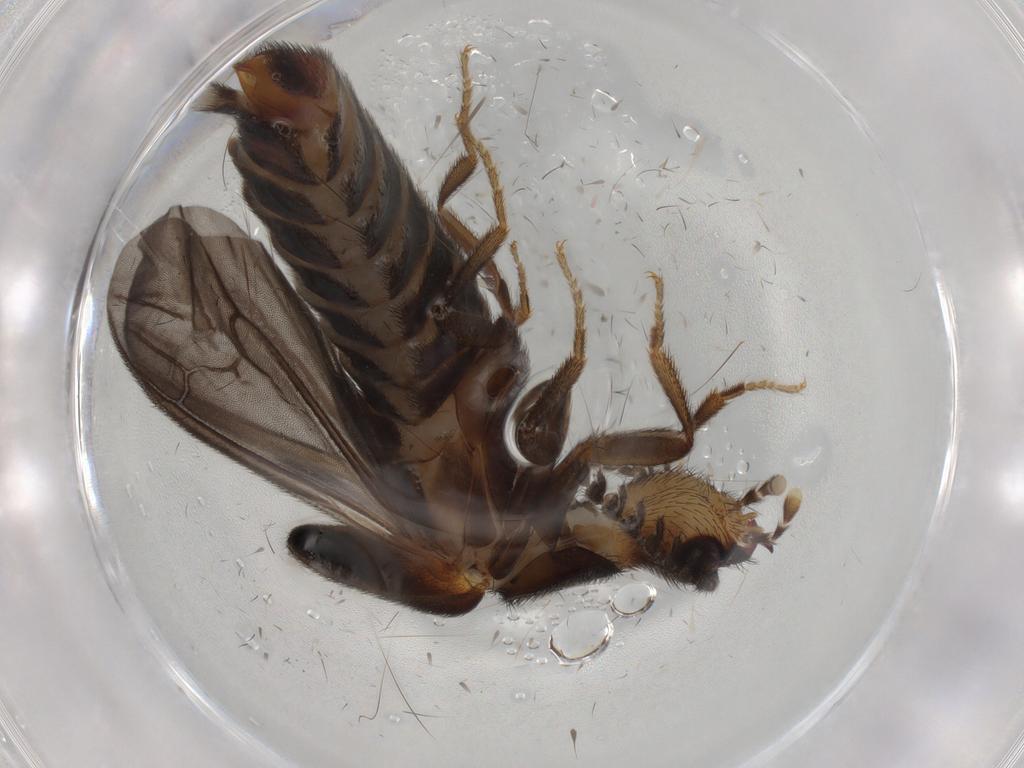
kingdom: Animalia
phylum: Arthropoda
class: Insecta
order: Coleoptera
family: Phengodidae
